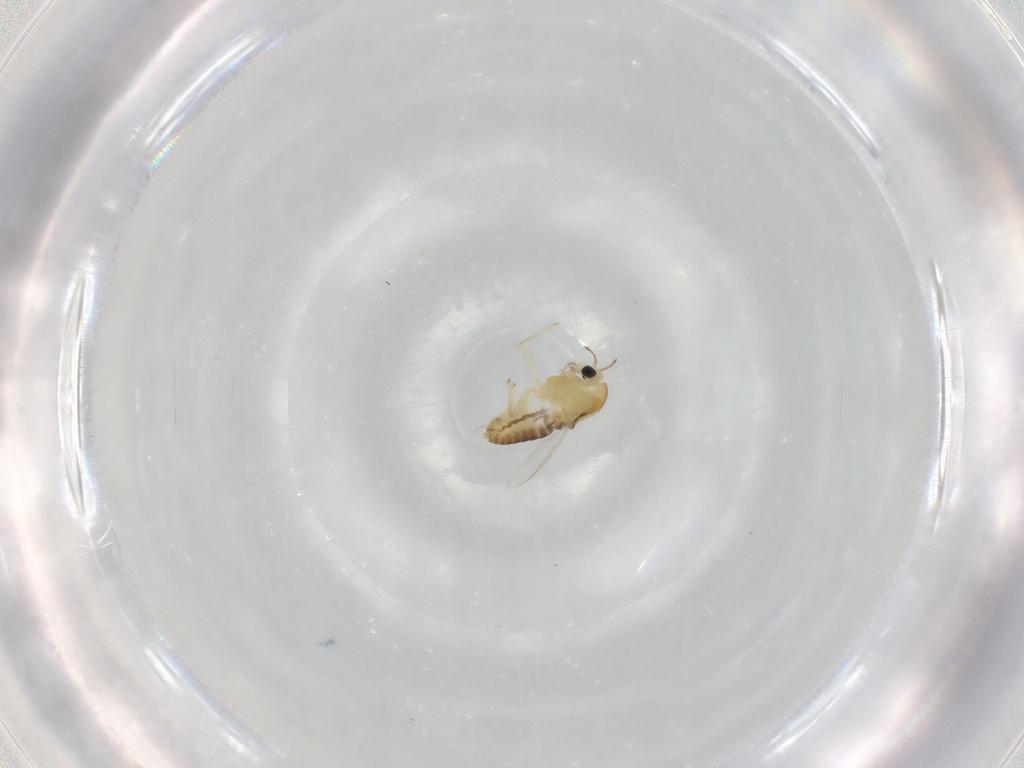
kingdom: Animalia
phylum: Arthropoda
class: Insecta
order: Diptera
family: Chironomidae
